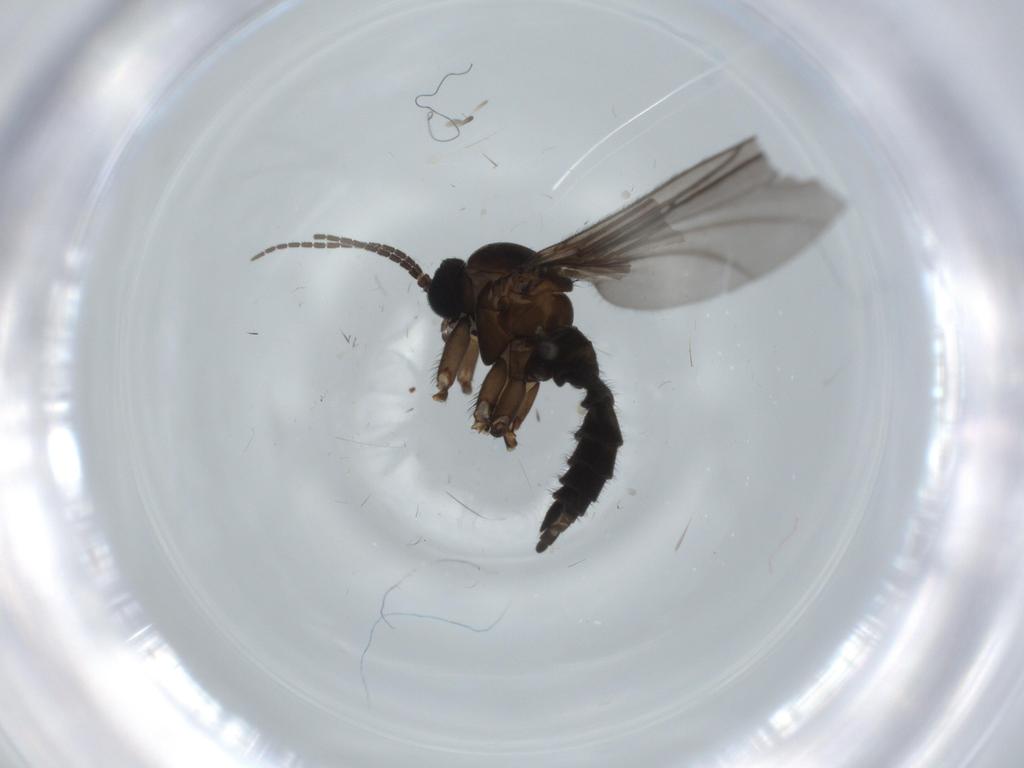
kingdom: Animalia
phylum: Arthropoda
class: Insecta
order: Diptera
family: Sciaridae
